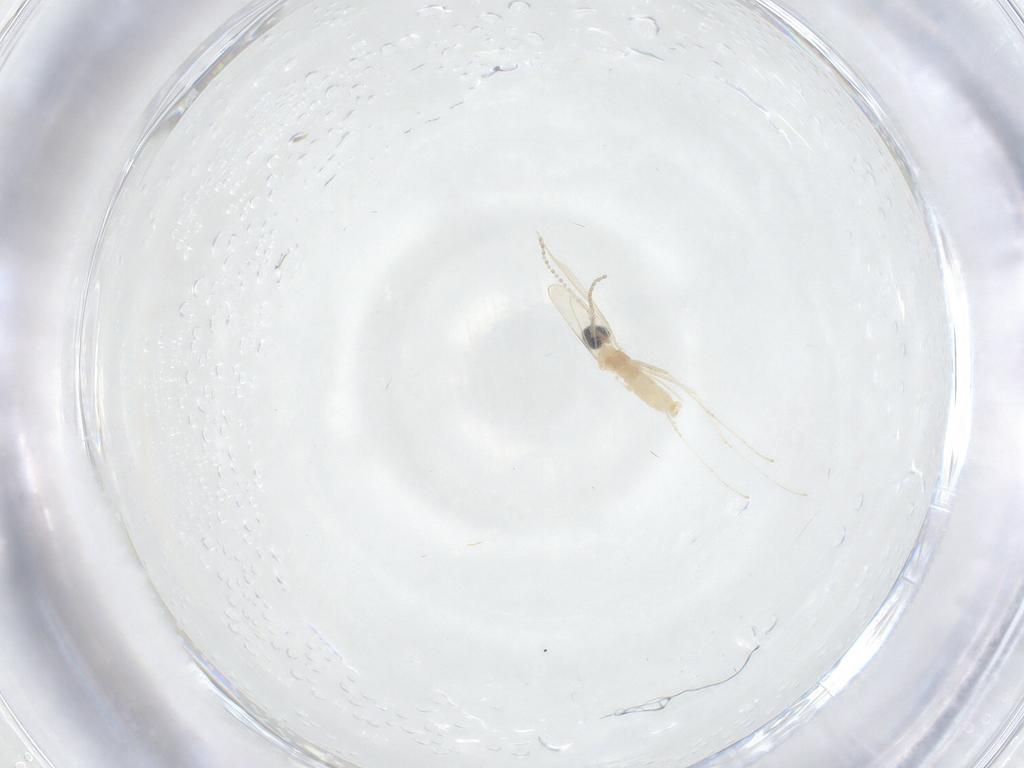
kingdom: Animalia
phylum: Arthropoda
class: Insecta
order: Diptera
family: Cecidomyiidae
